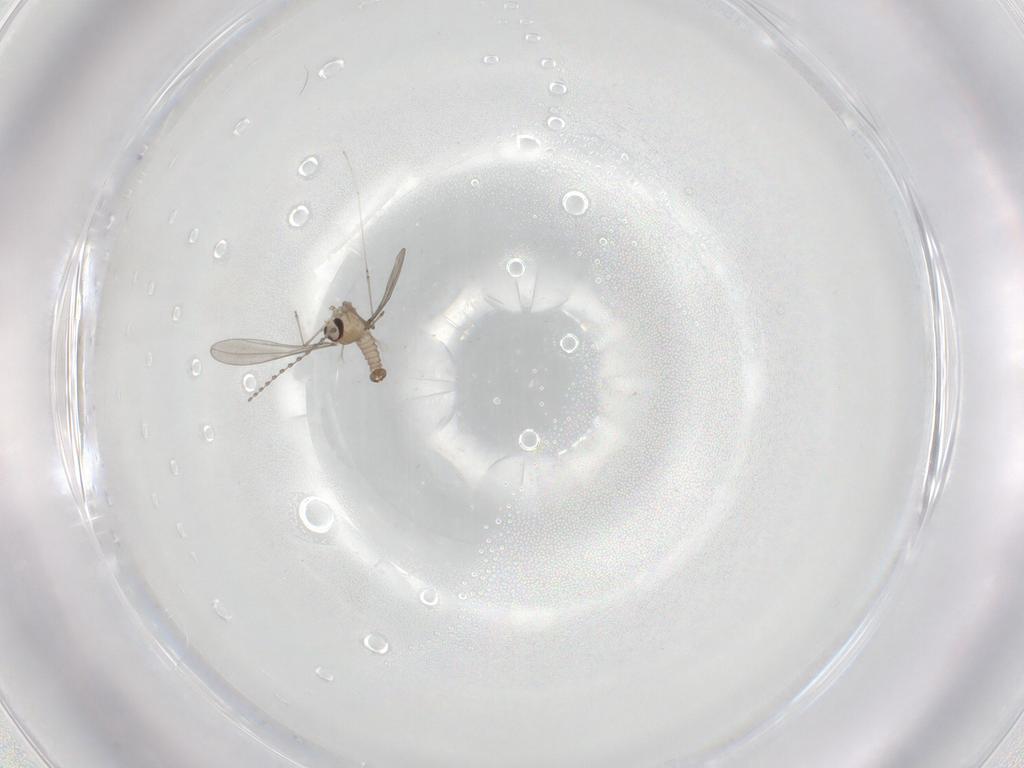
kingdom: Animalia
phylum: Arthropoda
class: Insecta
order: Diptera
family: Cecidomyiidae
